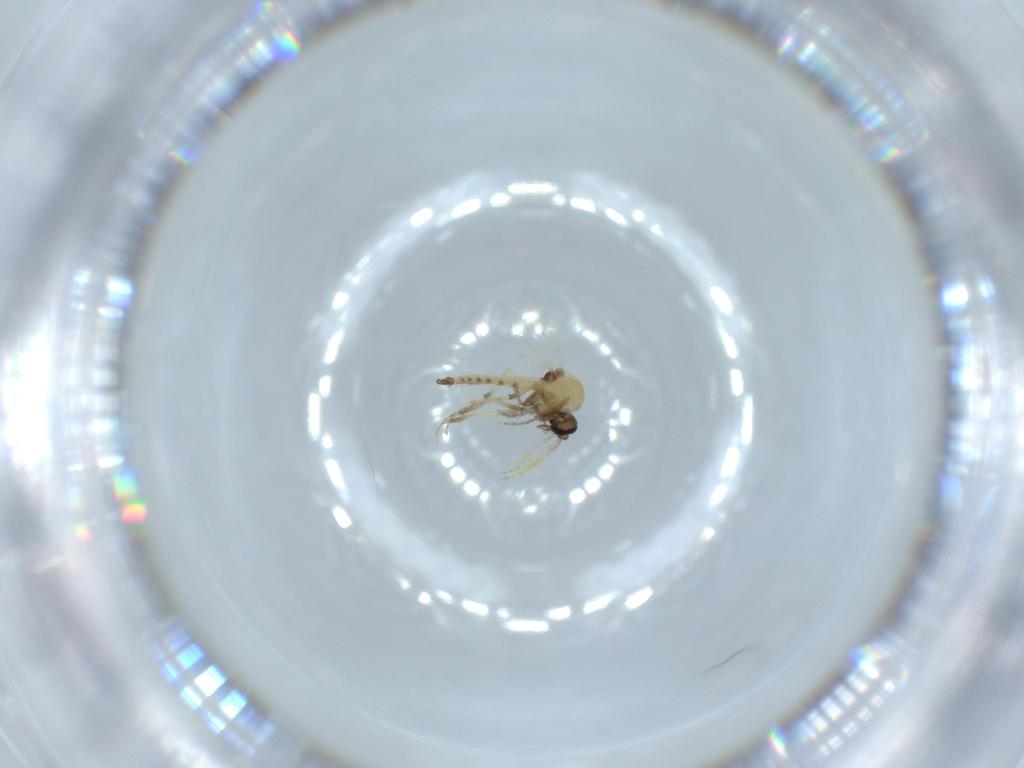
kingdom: Animalia
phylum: Arthropoda
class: Insecta
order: Diptera
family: Ceratopogonidae
